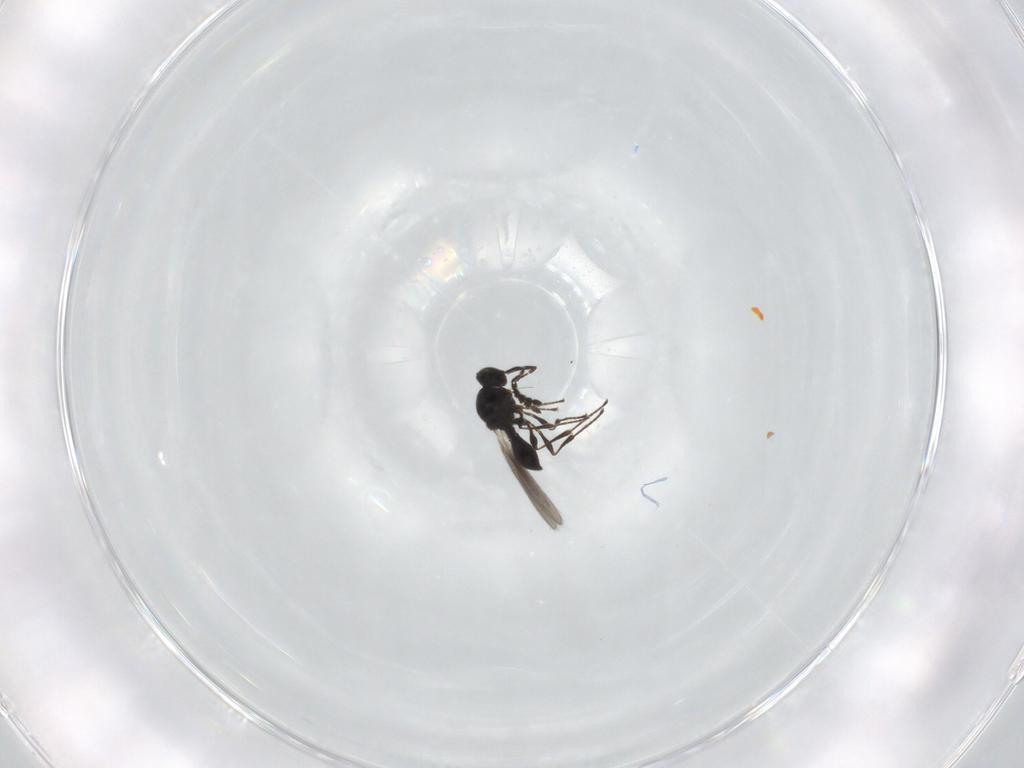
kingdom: Animalia
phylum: Arthropoda
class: Insecta
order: Hymenoptera
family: Platygastridae
